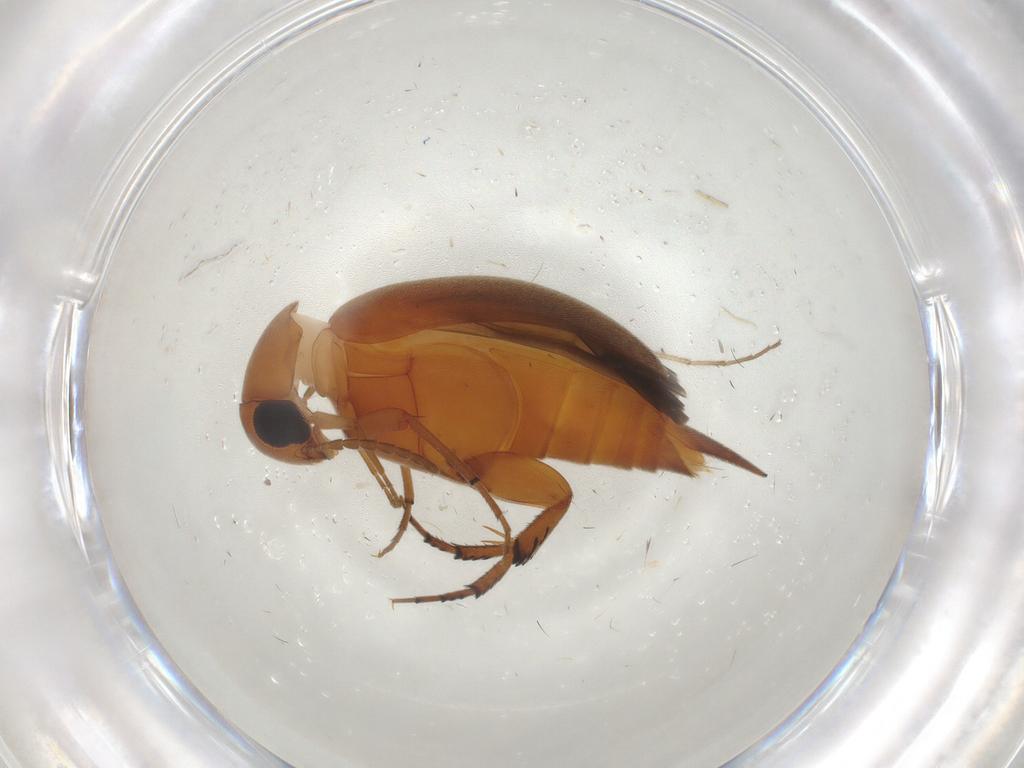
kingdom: Animalia
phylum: Arthropoda
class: Insecta
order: Coleoptera
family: Mordellidae
